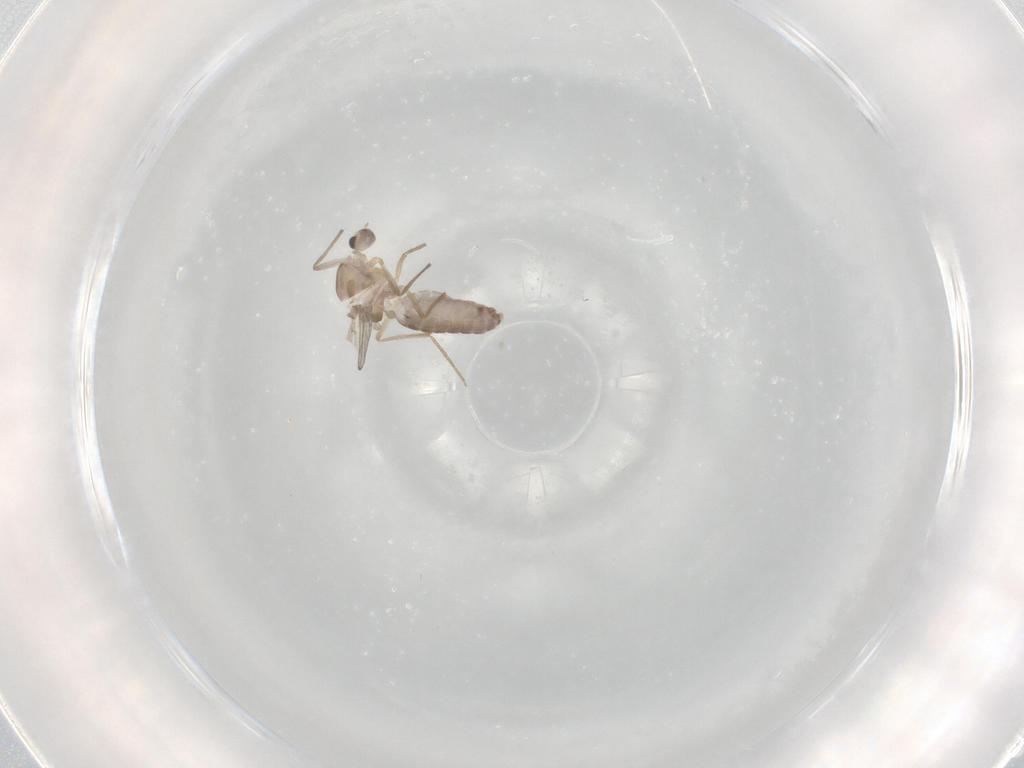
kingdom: Animalia
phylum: Arthropoda
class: Insecta
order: Diptera
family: Chironomidae
